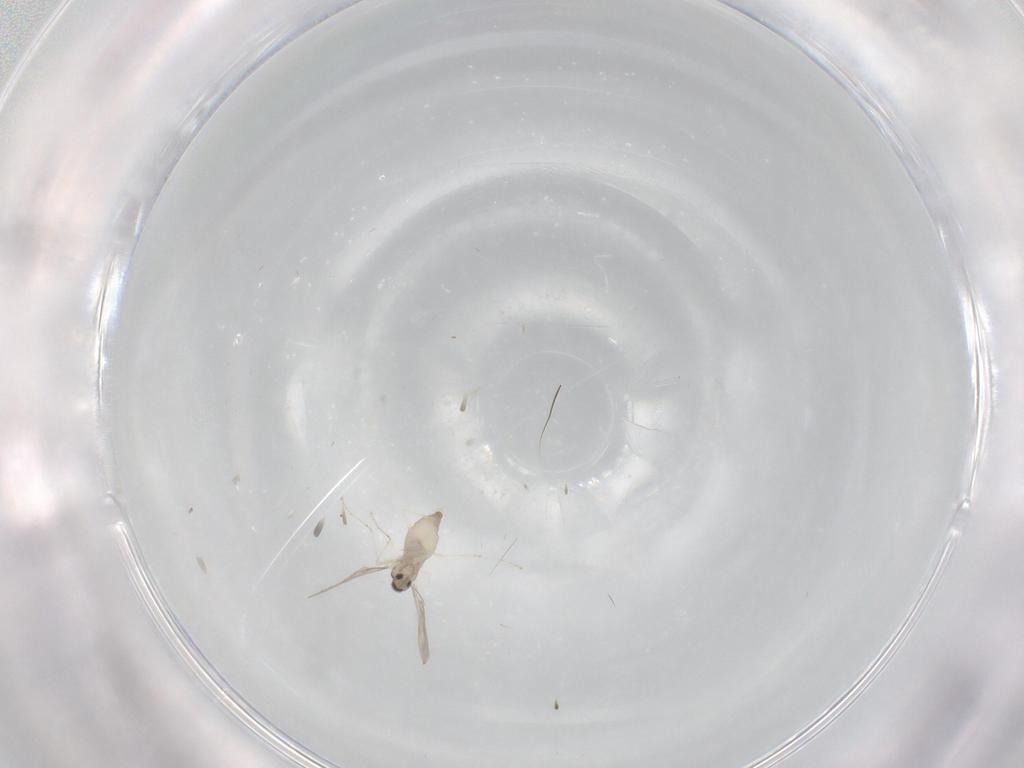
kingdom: Animalia
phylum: Arthropoda
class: Insecta
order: Diptera
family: Cecidomyiidae
